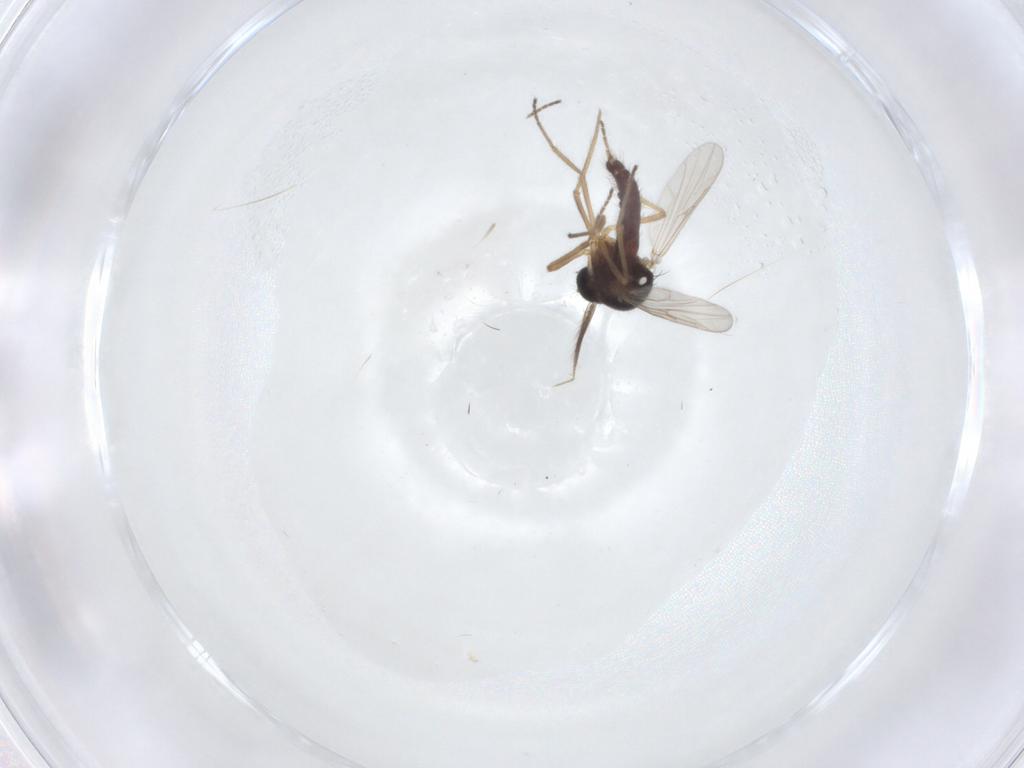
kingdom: Animalia
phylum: Arthropoda
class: Insecta
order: Diptera
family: Ceratopogonidae
